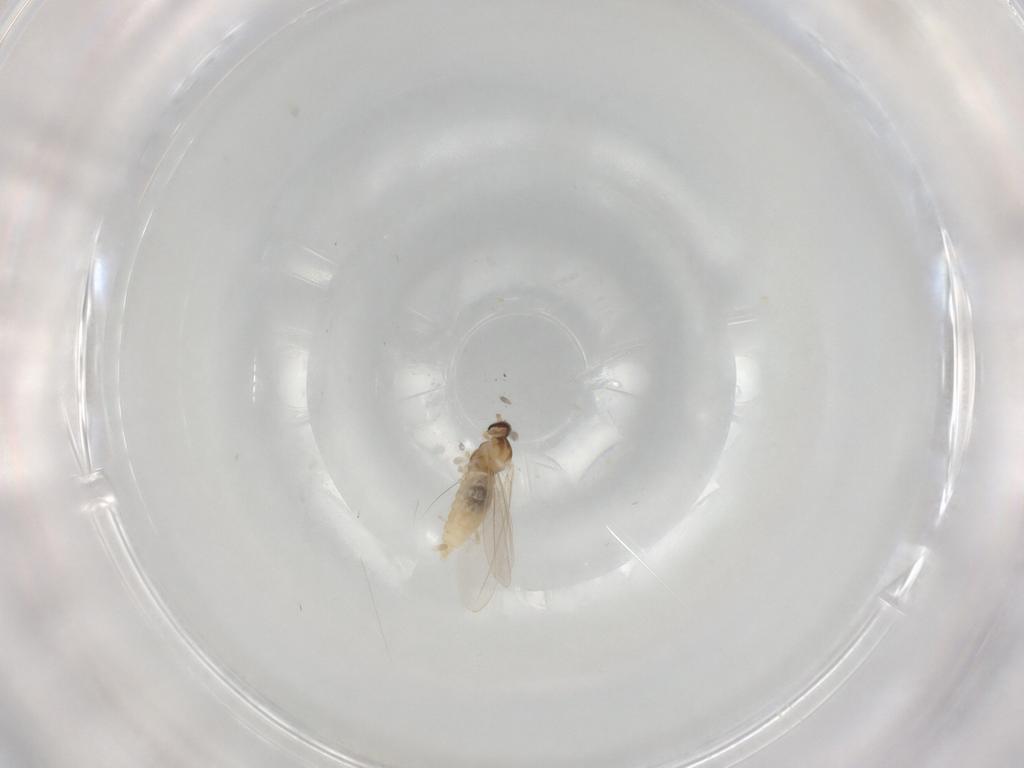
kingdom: Animalia
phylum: Arthropoda
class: Insecta
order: Diptera
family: Cecidomyiidae
